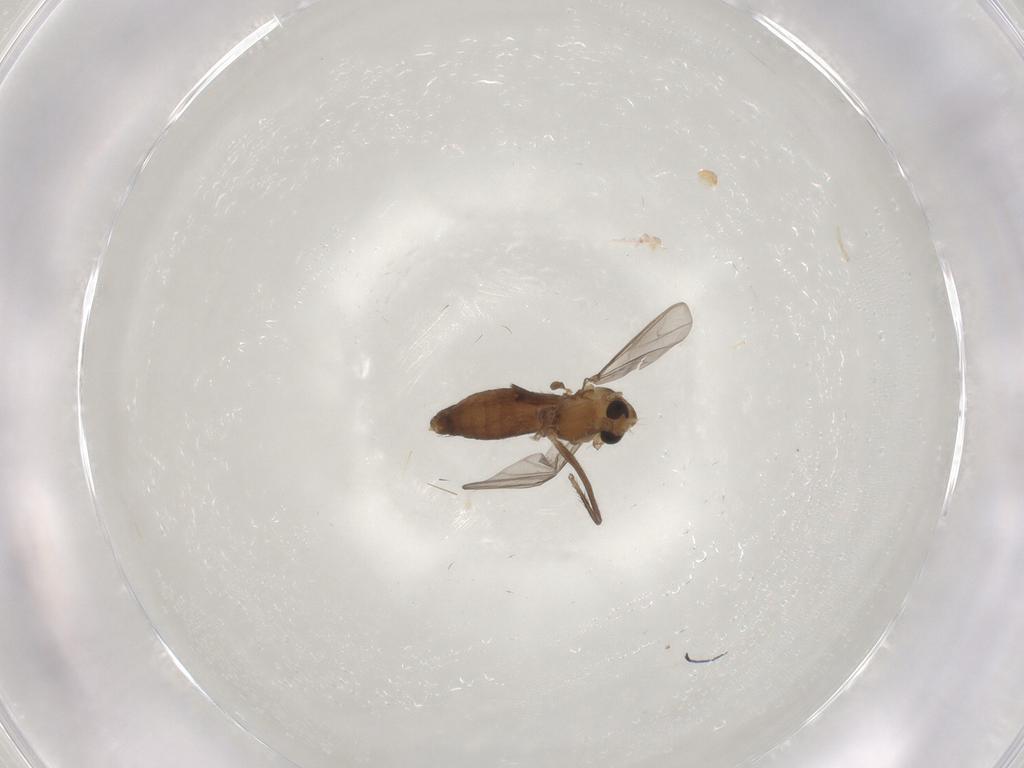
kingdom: Animalia
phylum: Arthropoda
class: Insecta
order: Diptera
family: Chironomidae
